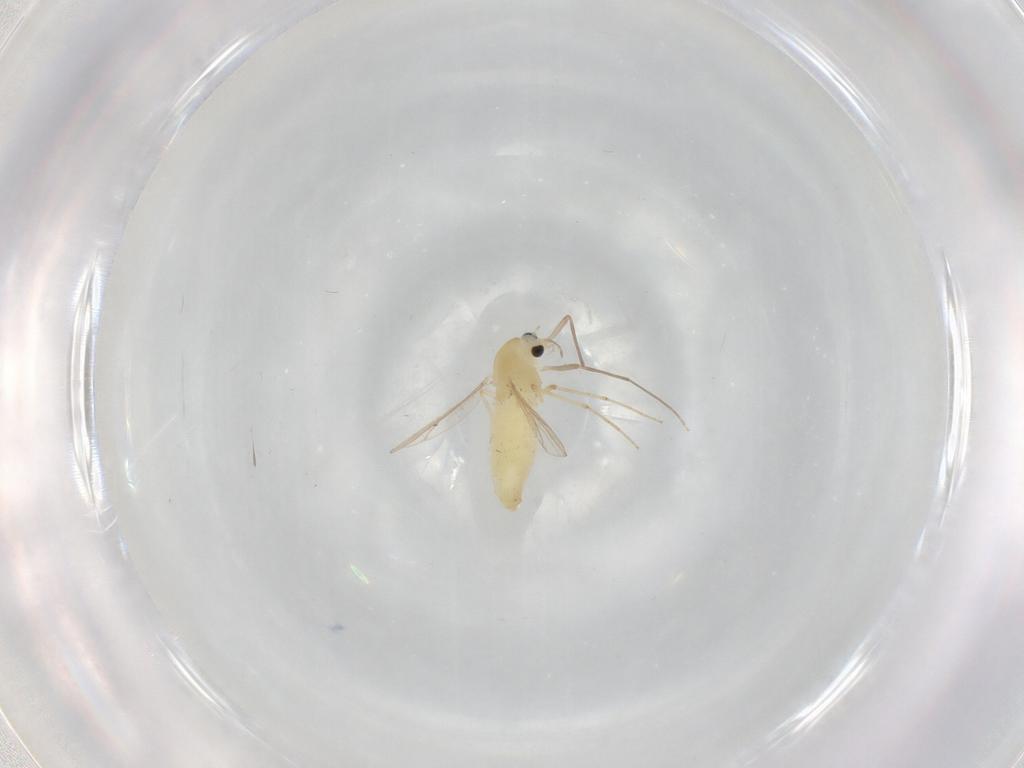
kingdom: Animalia
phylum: Arthropoda
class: Insecta
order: Diptera
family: Chironomidae
